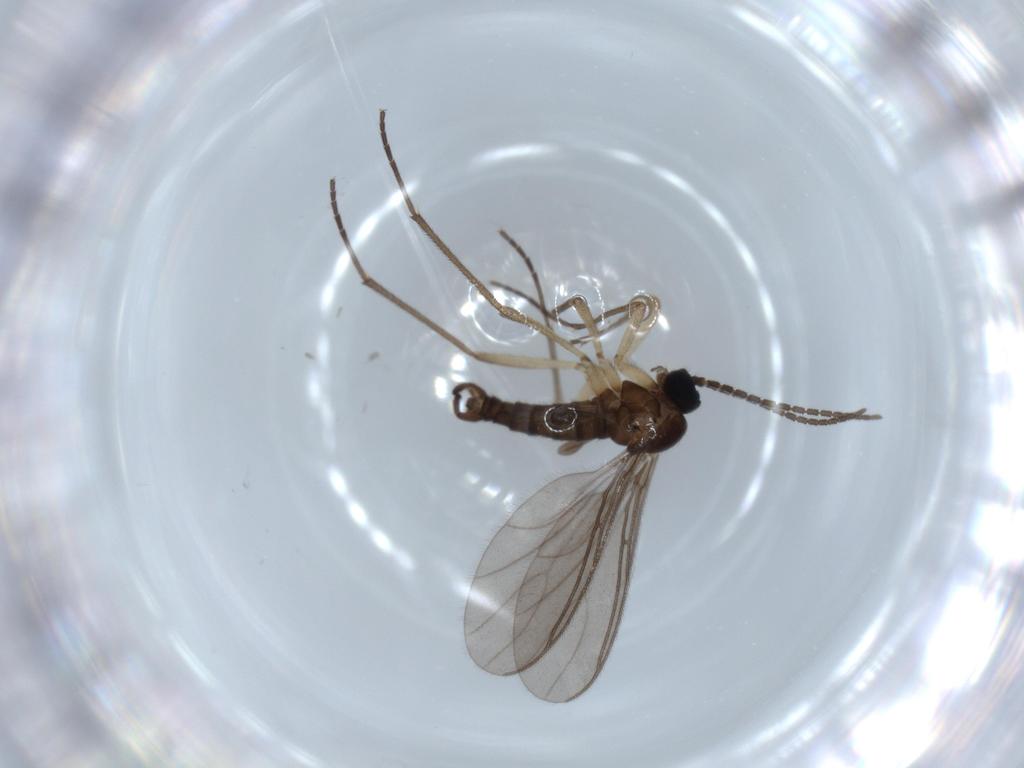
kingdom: Animalia
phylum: Arthropoda
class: Insecta
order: Diptera
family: Sciaridae
